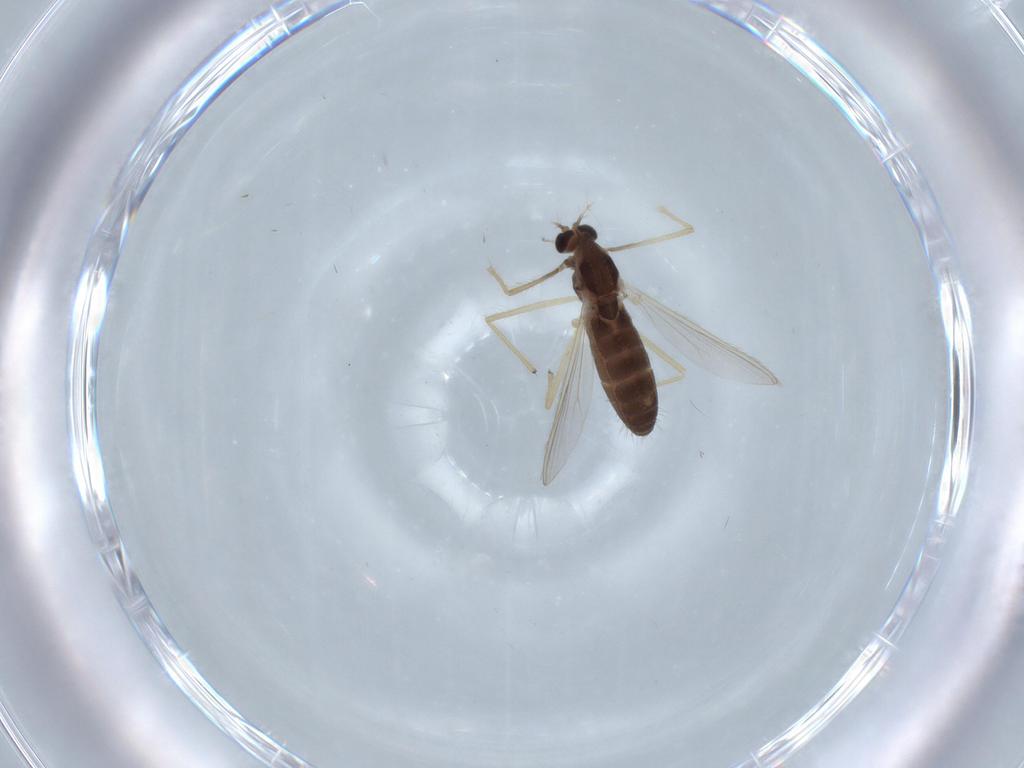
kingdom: Animalia
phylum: Arthropoda
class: Insecta
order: Diptera
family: Chironomidae
